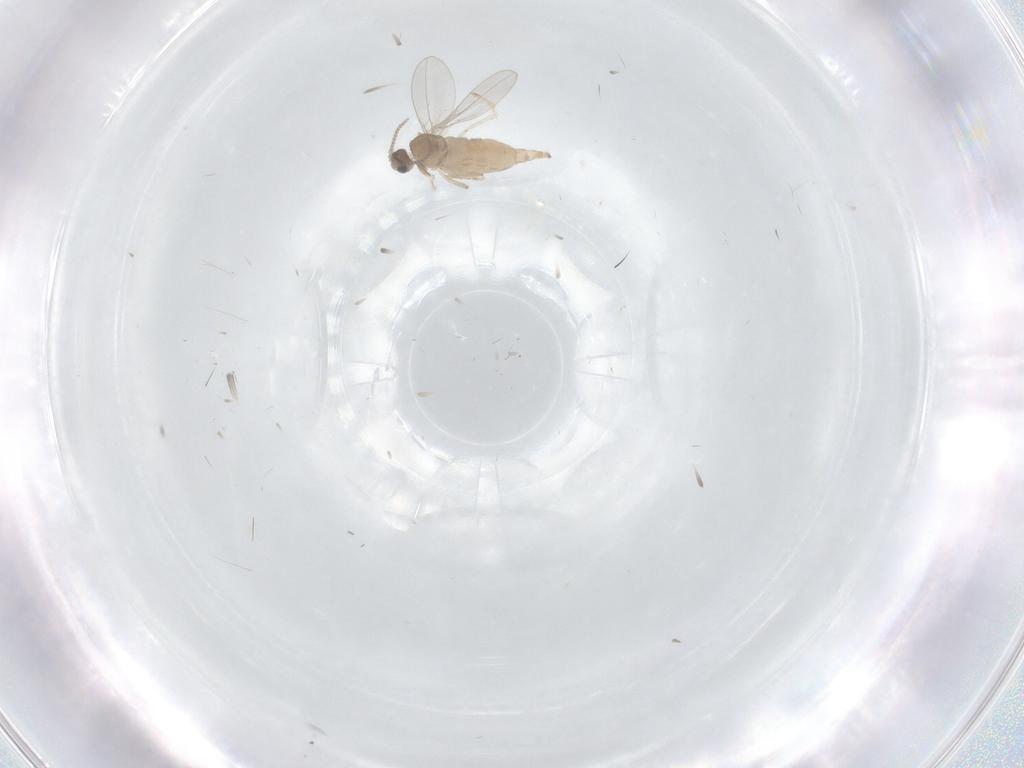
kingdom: Animalia
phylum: Arthropoda
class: Insecta
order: Diptera
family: Cecidomyiidae
